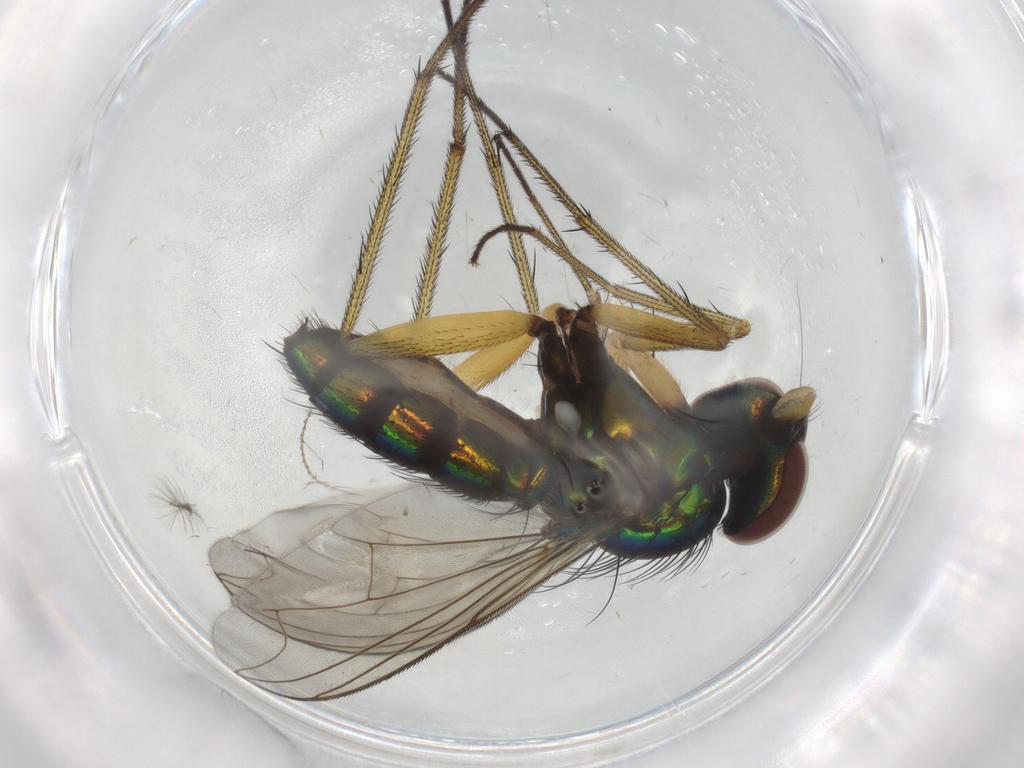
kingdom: Animalia
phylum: Arthropoda
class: Insecta
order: Diptera
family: Dolichopodidae
